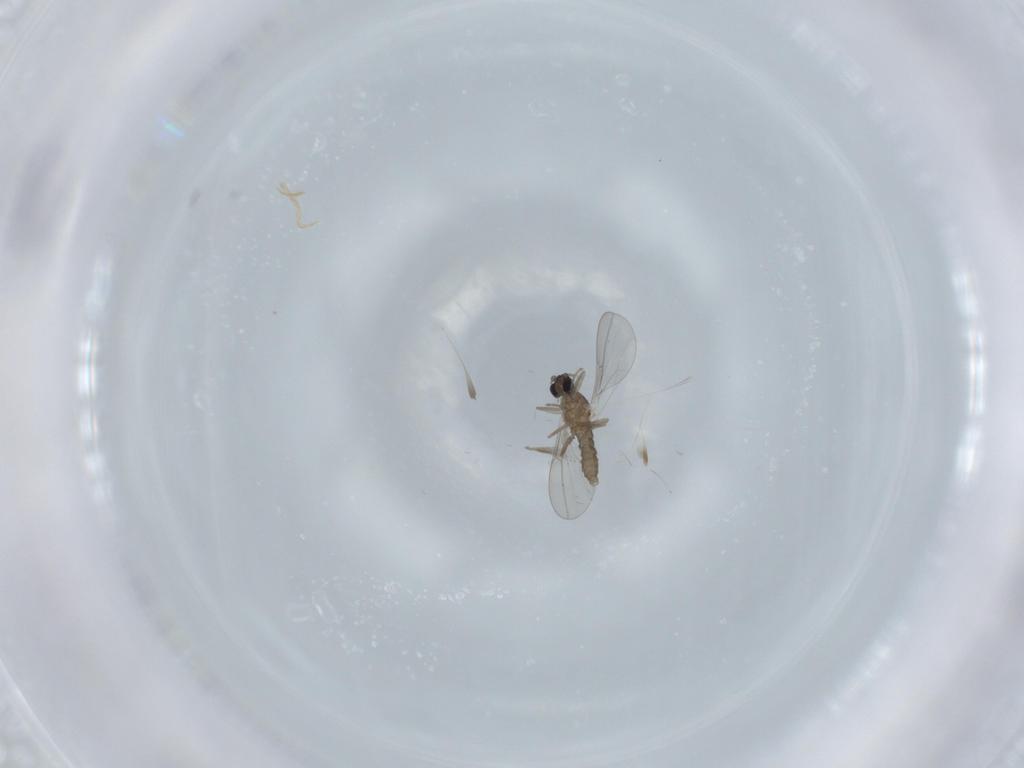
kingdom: Animalia
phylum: Arthropoda
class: Insecta
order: Diptera
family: Cecidomyiidae
